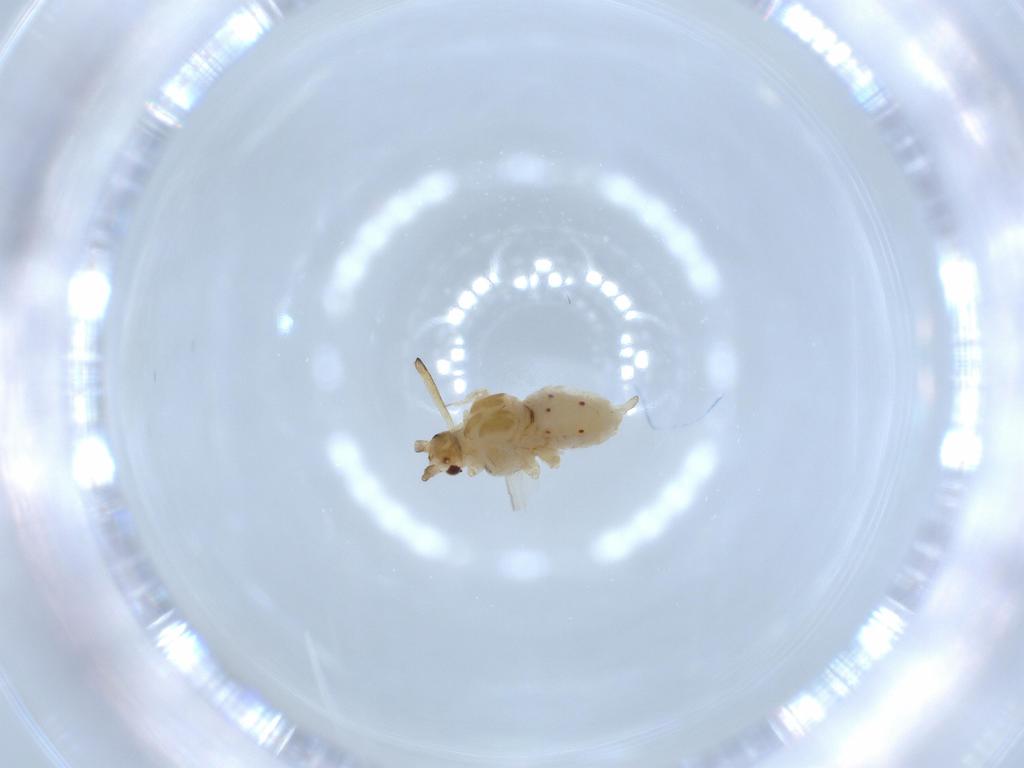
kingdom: Animalia
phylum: Arthropoda
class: Insecta
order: Hemiptera
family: Aphididae
